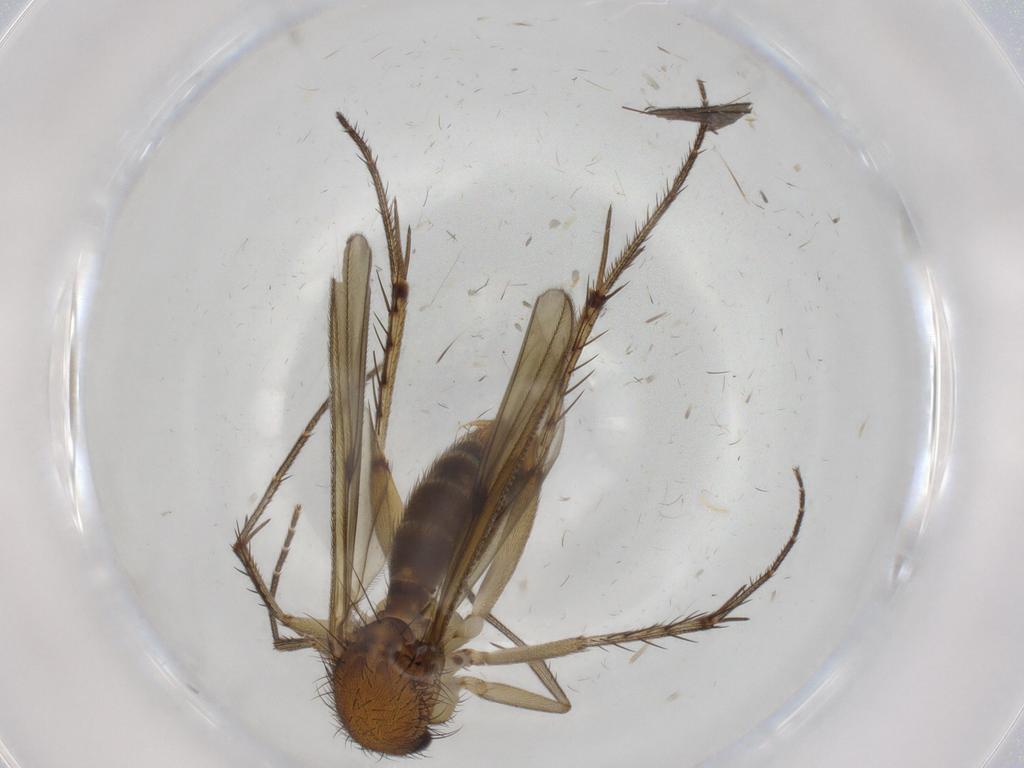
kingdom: Animalia
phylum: Arthropoda
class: Insecta
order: Diptera
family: Sciaridae
